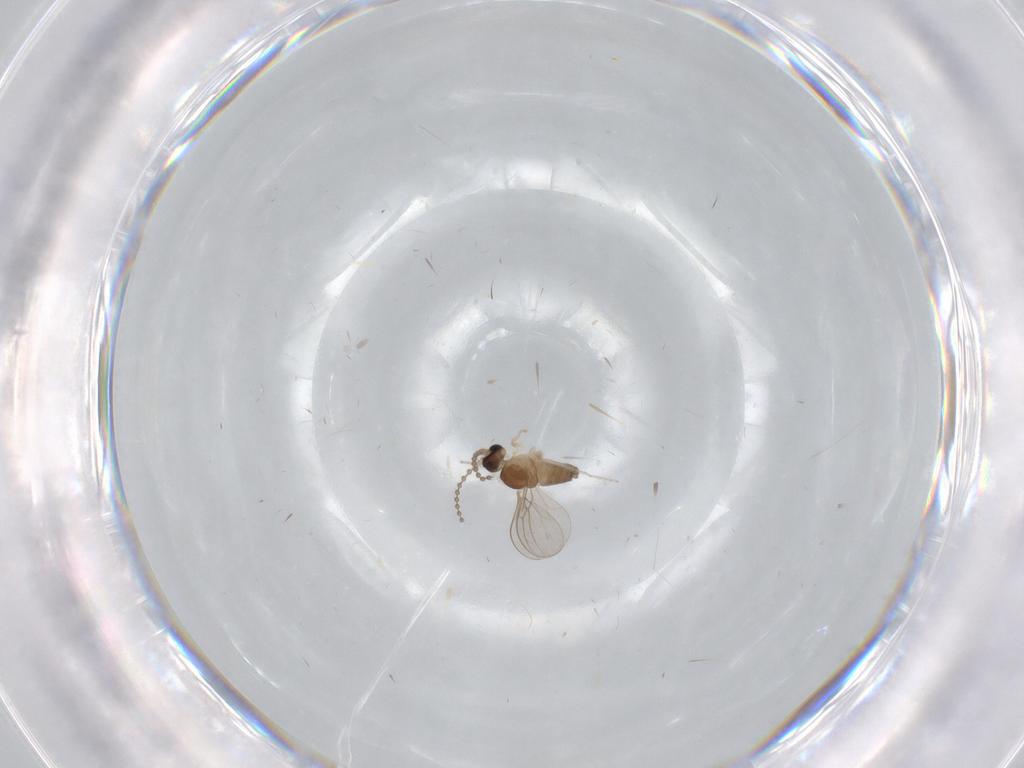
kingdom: Animalia
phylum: Arthropoda
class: Insecta
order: Diptera
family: Cecidomyiidae
